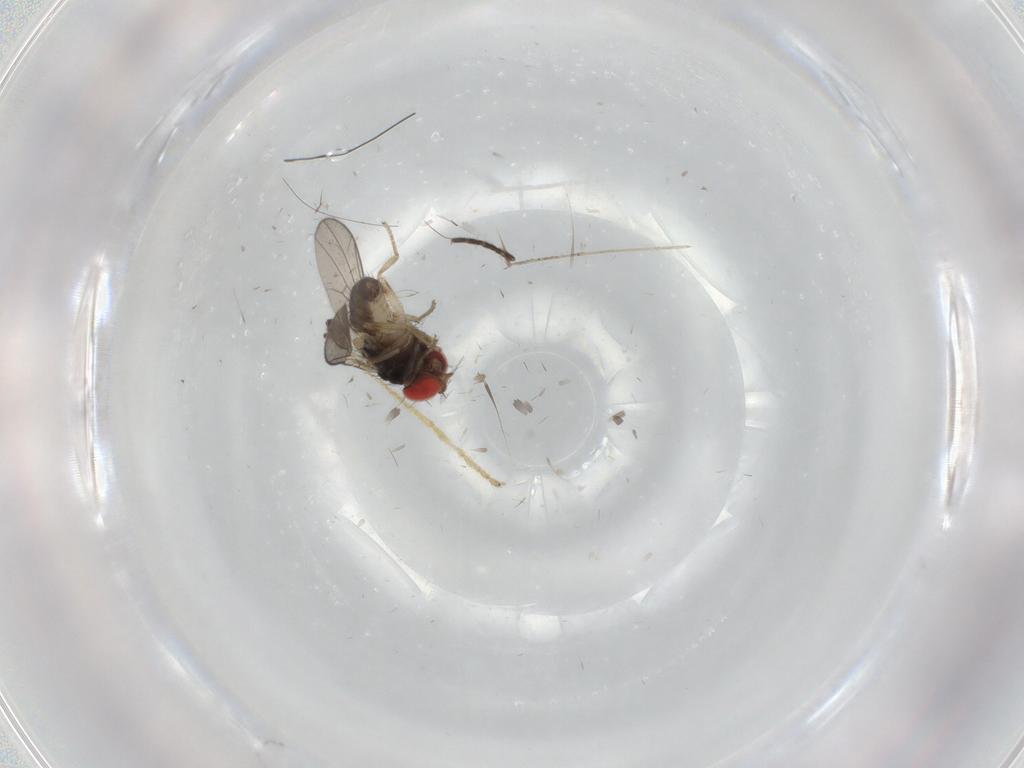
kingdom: Animalia
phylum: Arthropoda
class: Insecta
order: Diptera
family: Drosophilidae
